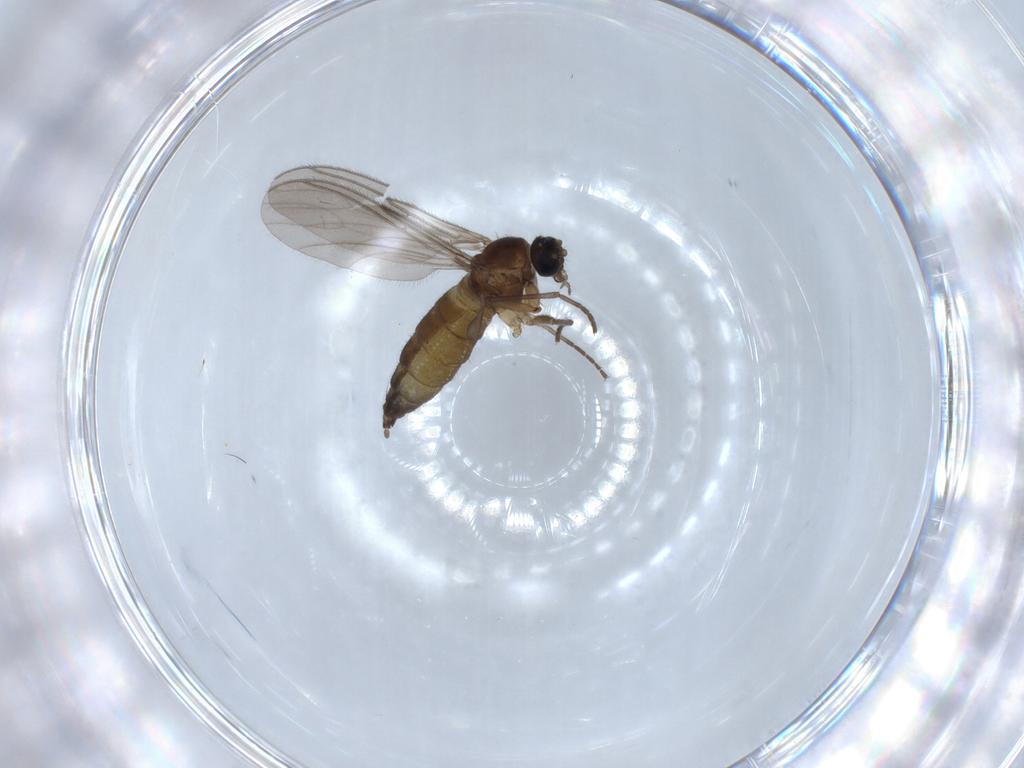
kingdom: Animalia
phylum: Arthropoda
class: Insecta
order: Diptera
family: Sciaridae
